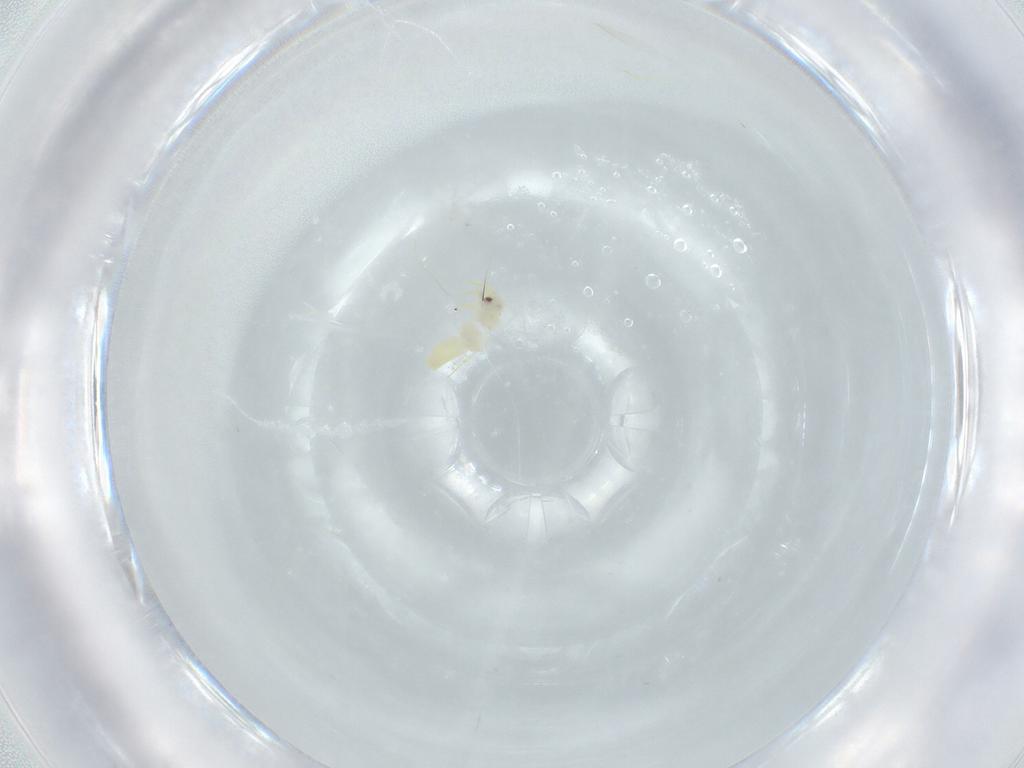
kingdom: Animalia
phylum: Arthropoda
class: Insecta
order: Hemiptera
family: Aleyrodidae
